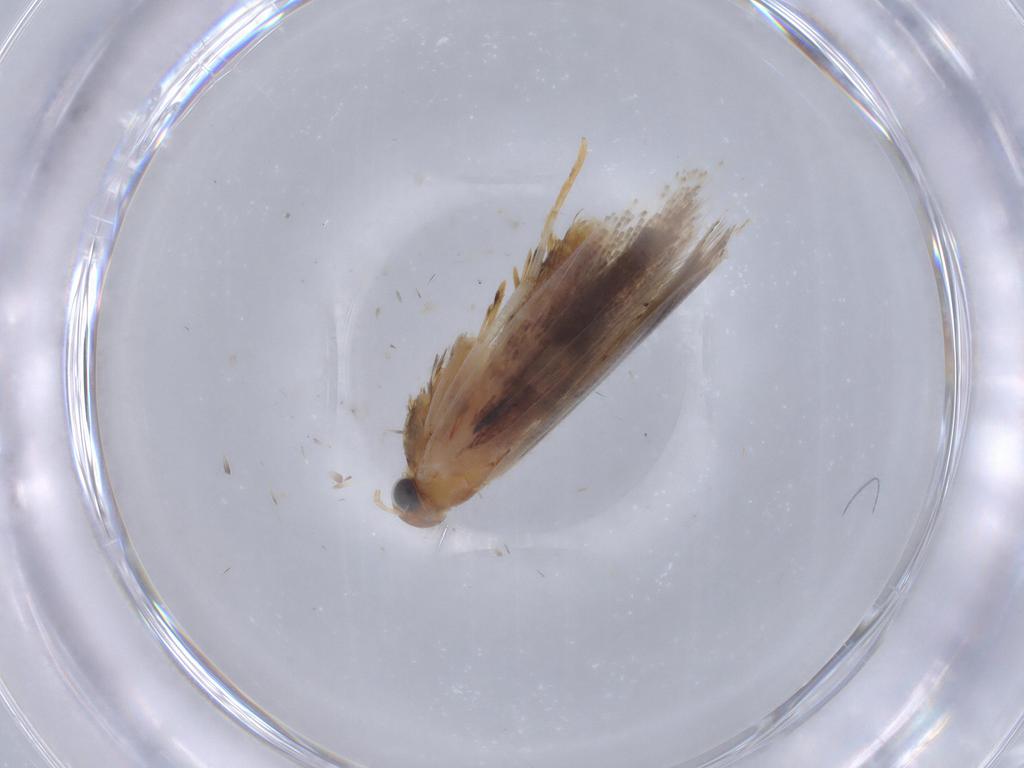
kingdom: Animalia
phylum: Arthropoda
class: Insecta
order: Lepidoptera
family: Gelechiidae
